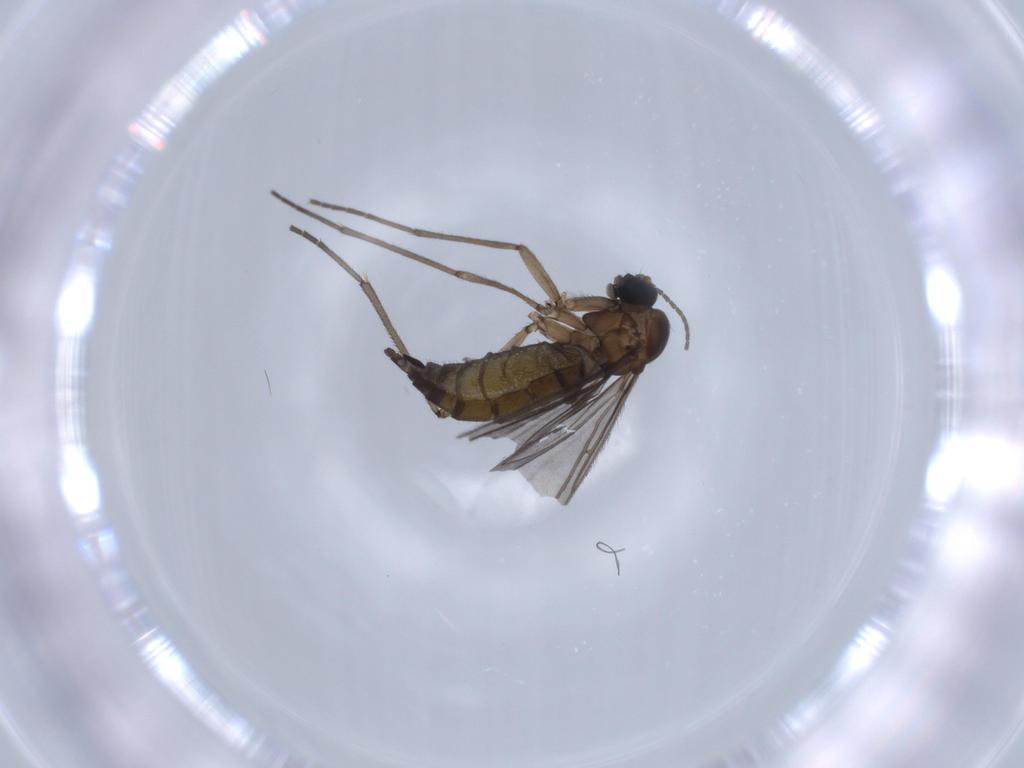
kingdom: Animalia
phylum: Arthropoda
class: Insecta
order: Diptera
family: Sciaridae
